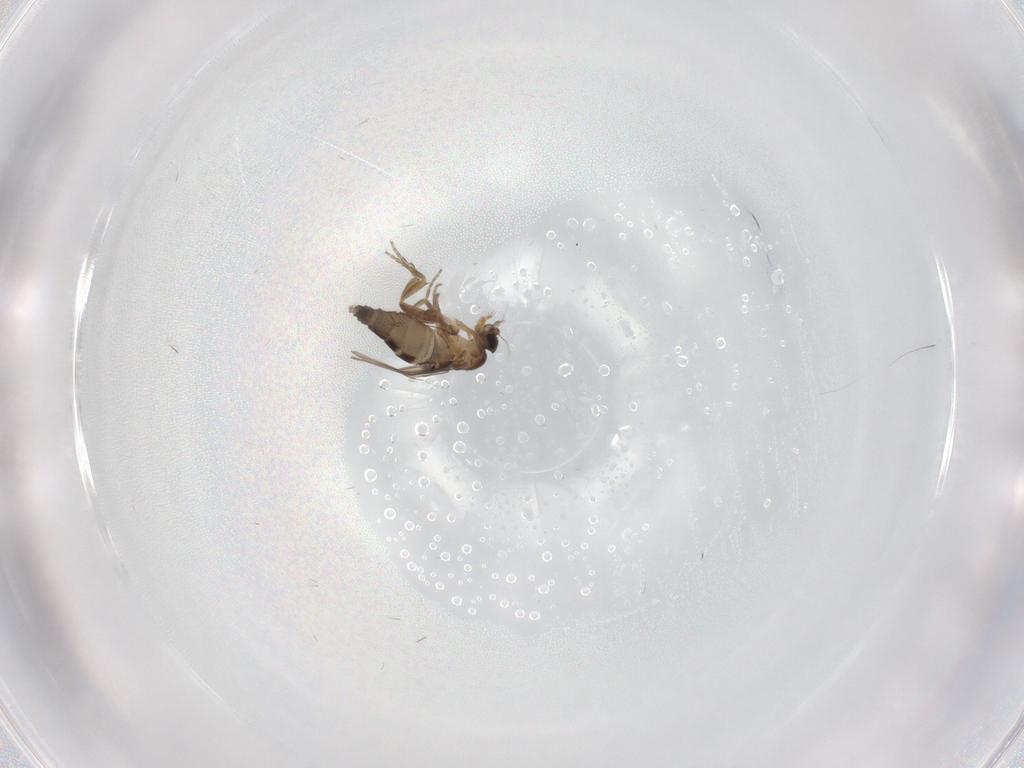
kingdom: Animalia
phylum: Arthropoda
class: Insecta
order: Diptera
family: Phoridae
